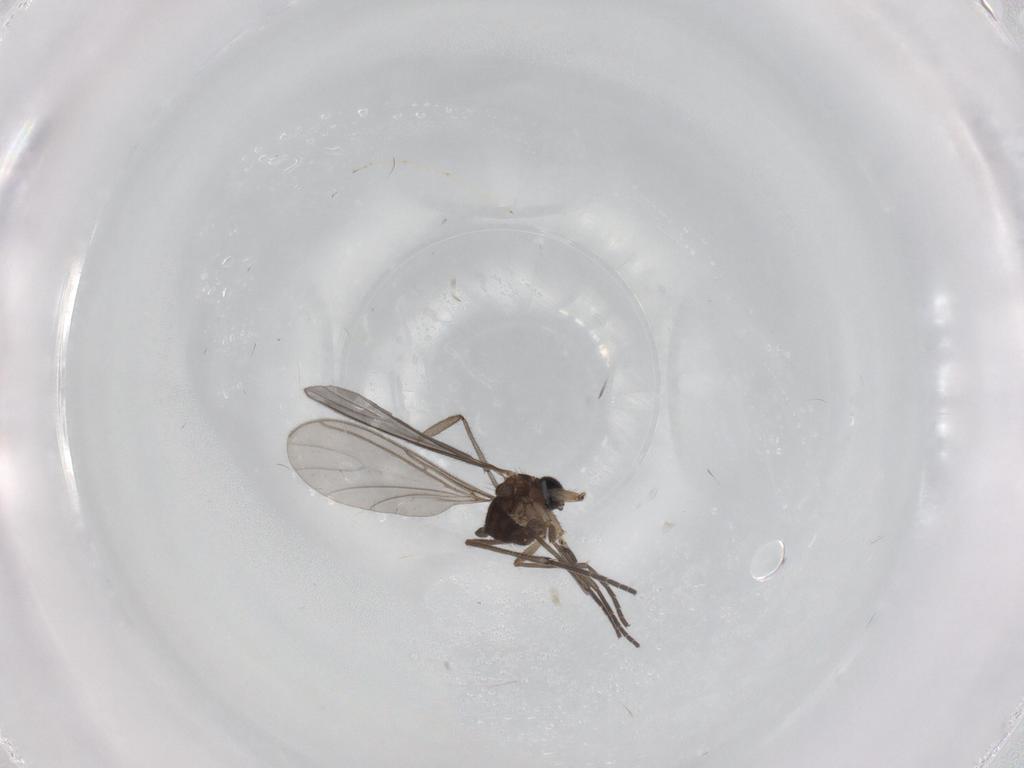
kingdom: Animalia
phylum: Arthropoda
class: Insecta
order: Diptera
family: Sciaridae
